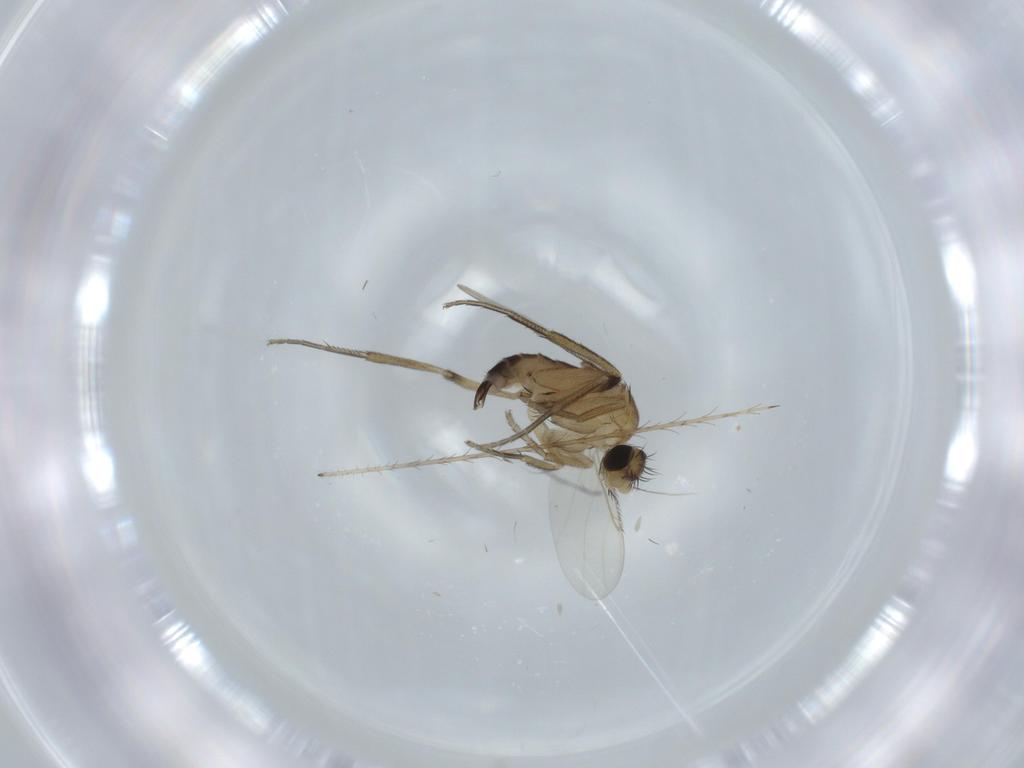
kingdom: Animalia
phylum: Arthropoda
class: Insecta
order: Diptera
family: Phoridae
